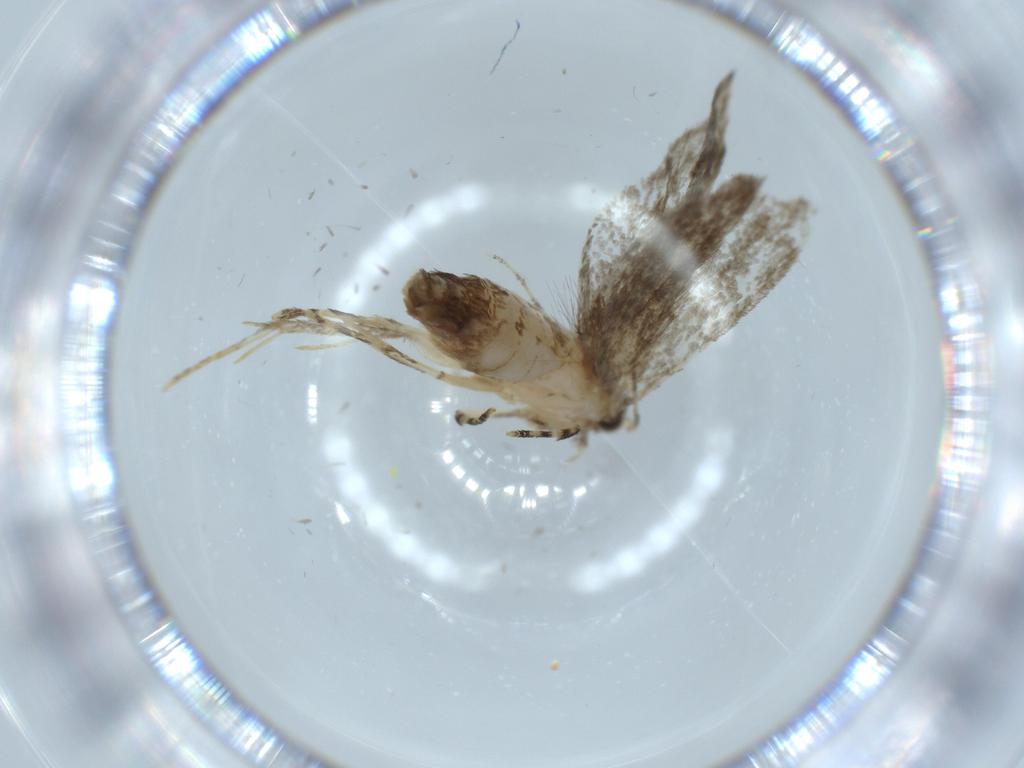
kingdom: Animalia
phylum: Arthropoda
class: Insecta
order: Lepidoptera
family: Tineidae
